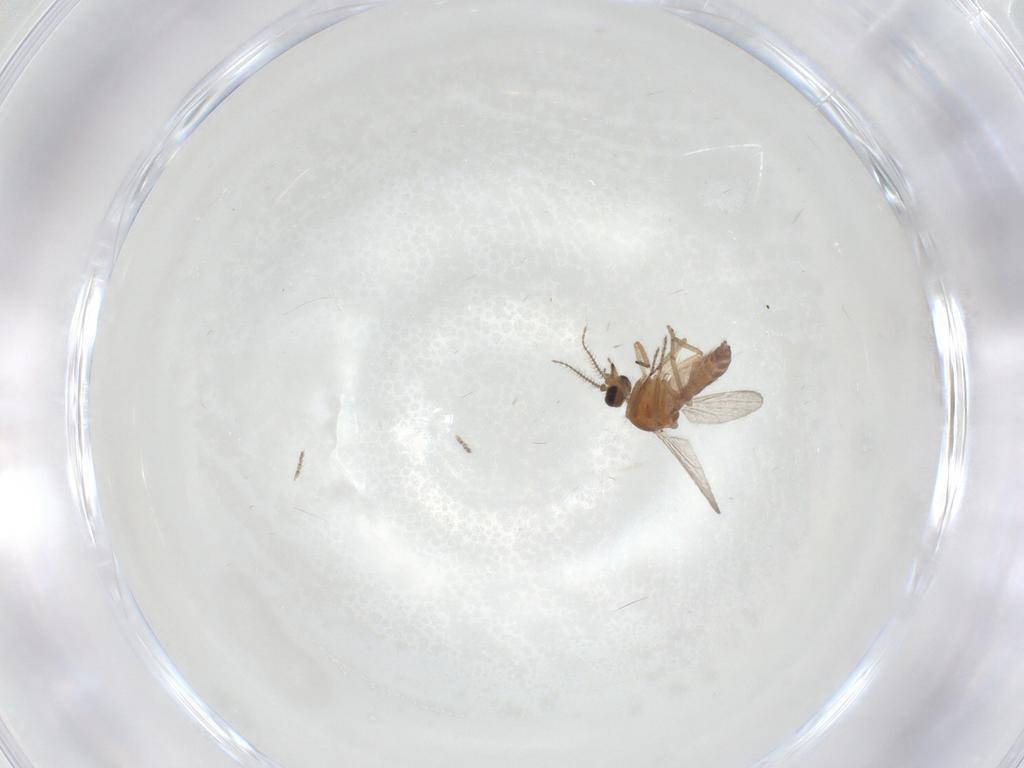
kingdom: Animalia
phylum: Arthropoda
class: Insecta
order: Diptera
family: Ceratopogonidae
